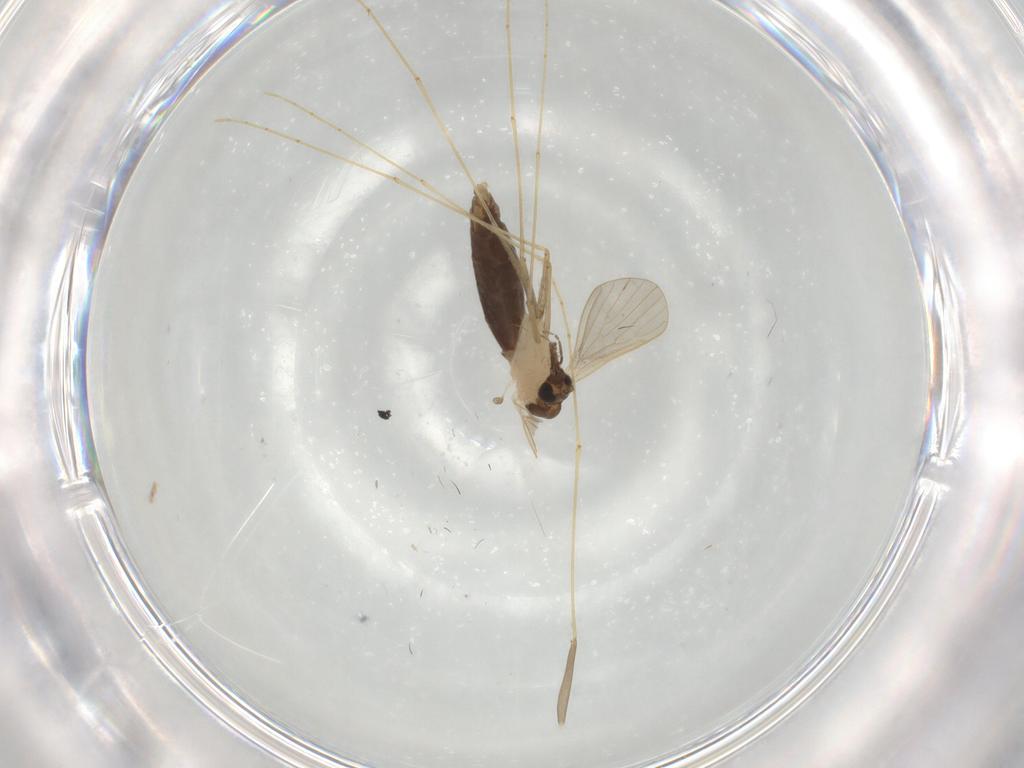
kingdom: Animalia
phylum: Arthropoda
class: Insecta
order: Diptera
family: Psychodidae
